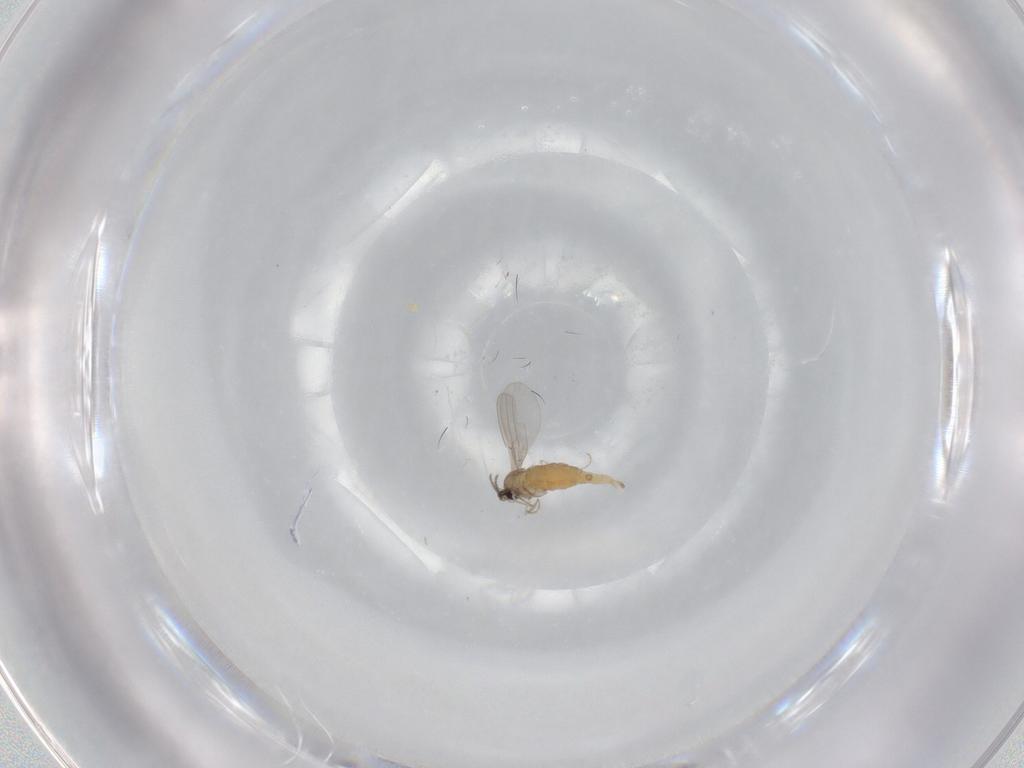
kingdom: Animalia
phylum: Arthropoda
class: Insecta
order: Diptera
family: Cecidomyiidae
